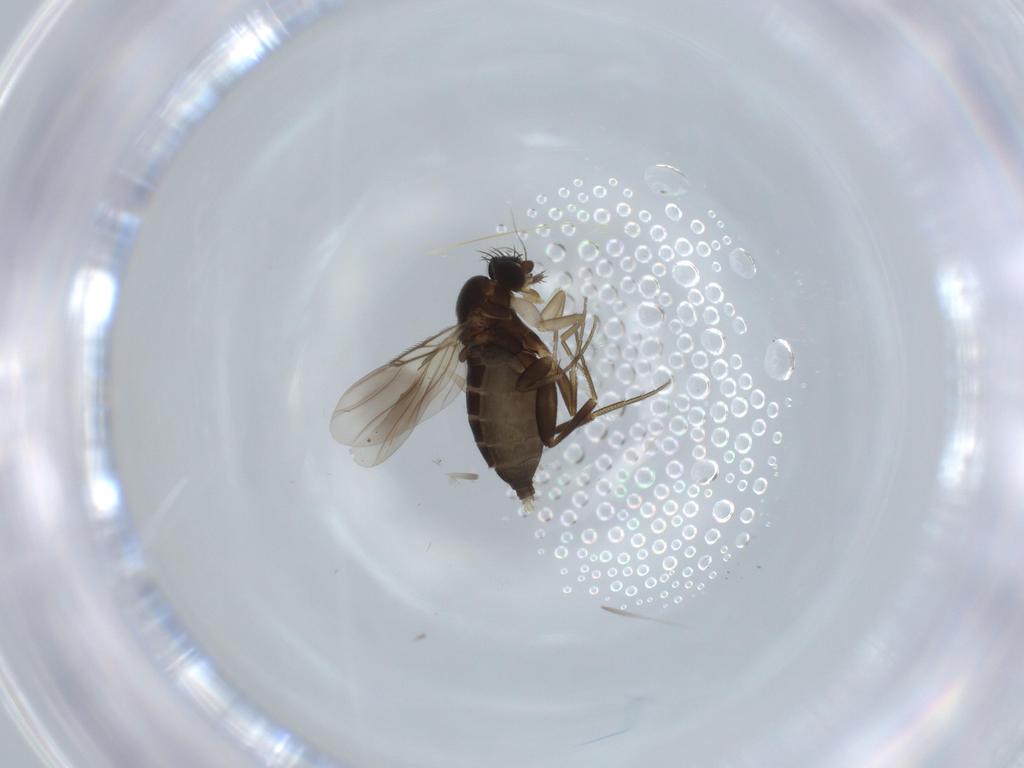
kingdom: Animalia
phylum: Arthropoda
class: Insecta
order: Diptera
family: Phoridae
